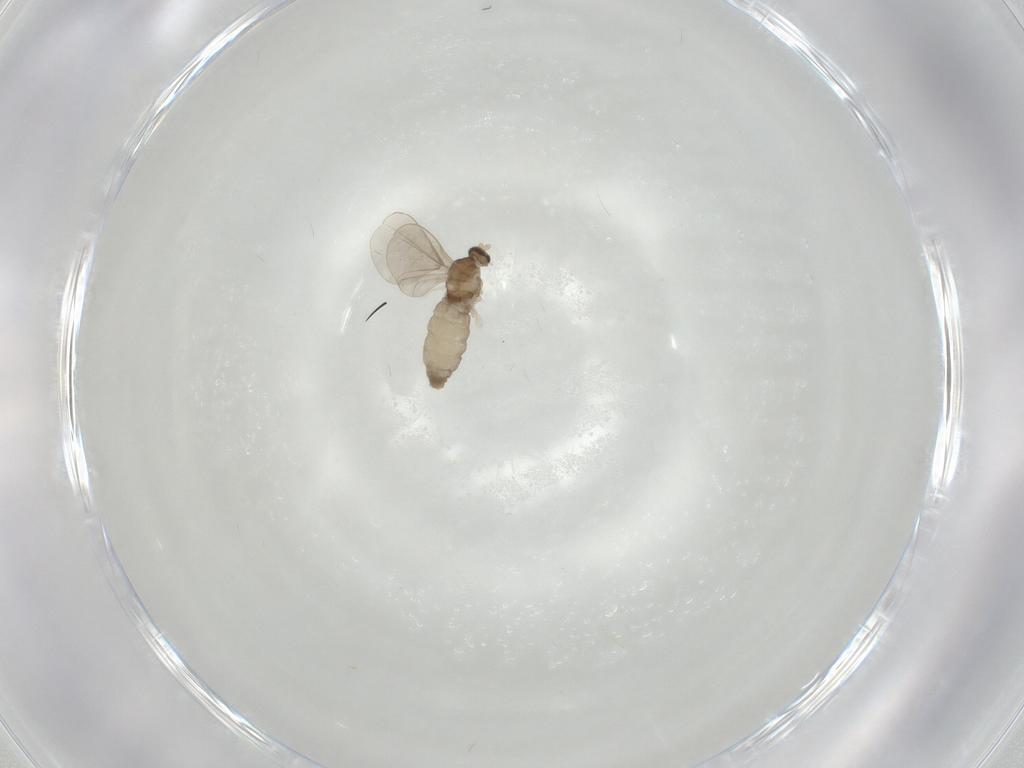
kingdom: Animalia
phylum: Arthropoda
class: Insecta
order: Diptera
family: Cecidomyiidae
